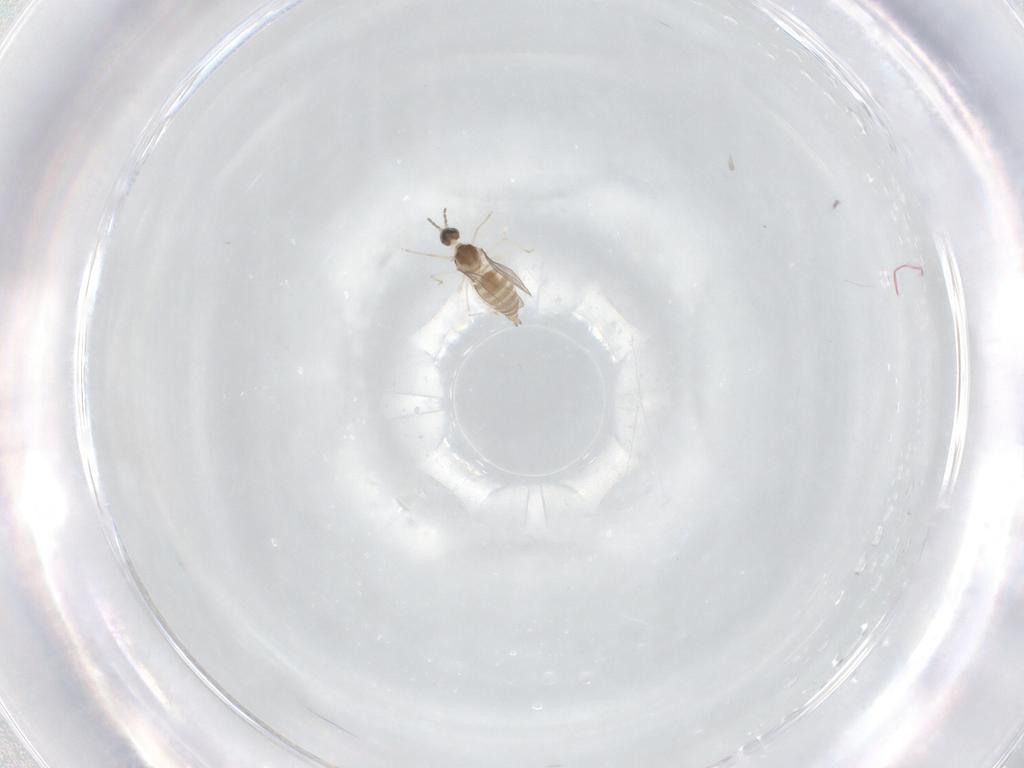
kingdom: Animalia
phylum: Arthropoda
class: Insecta
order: Diptera
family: Cecidomyiidae
